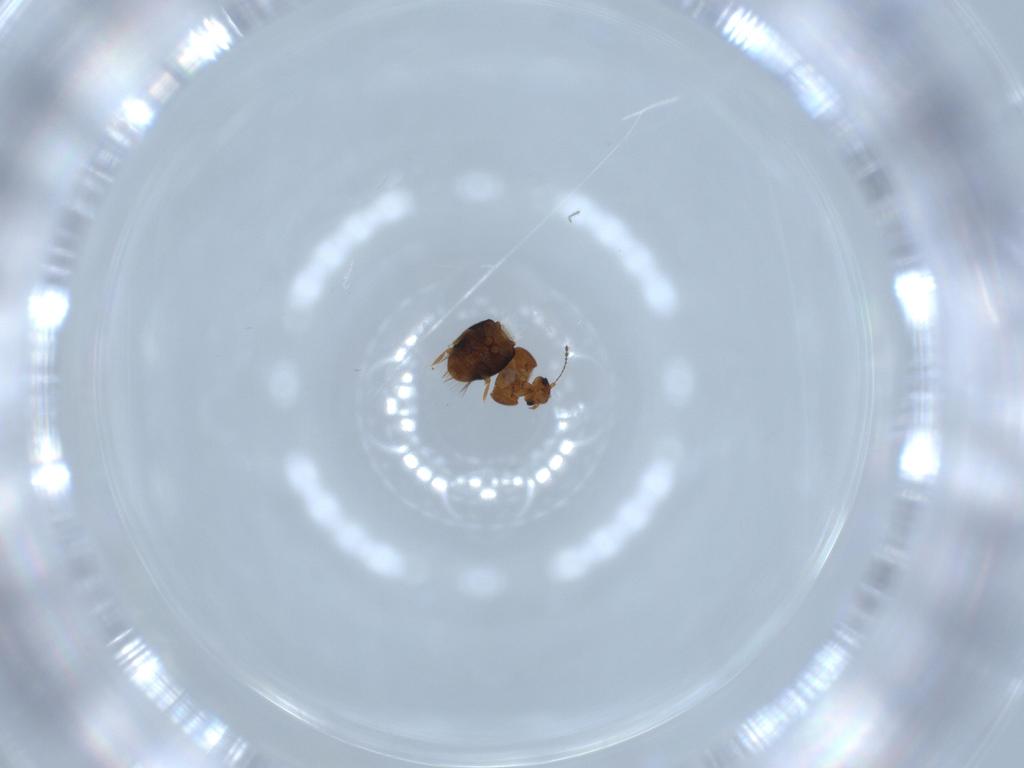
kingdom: Animalia
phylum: Arthropoda
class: Insecta
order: Coleoptera
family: Ptiliidae
